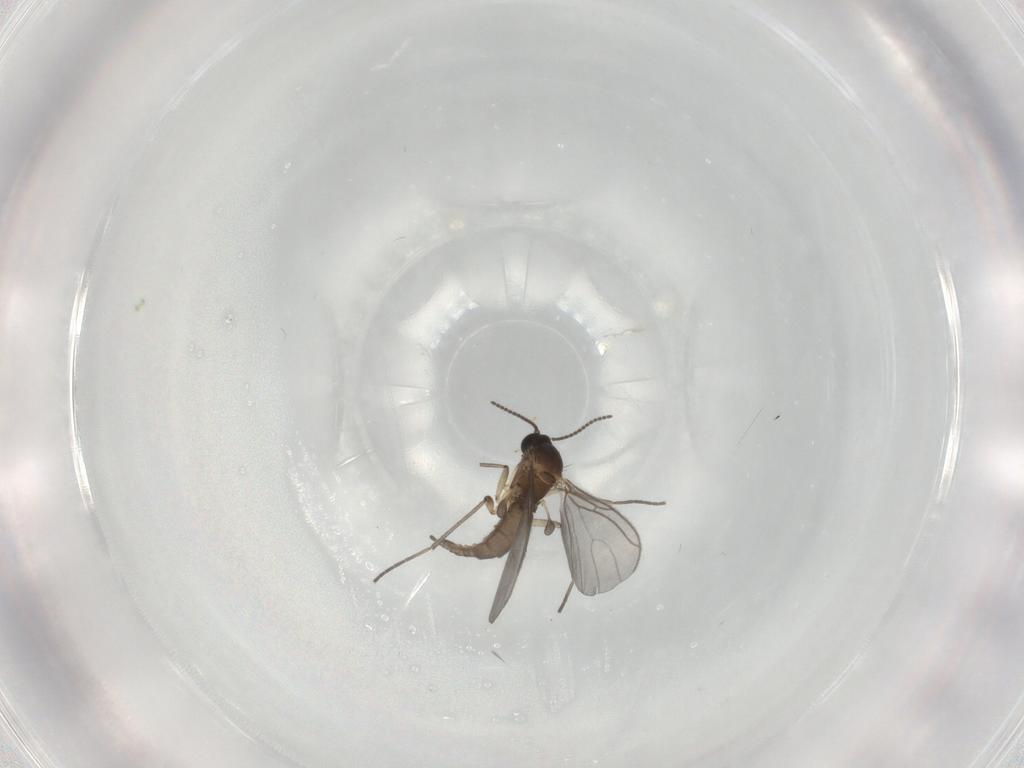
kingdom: Animalia
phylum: Arthropoda
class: Insecta
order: Diptera
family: Sciaridae
